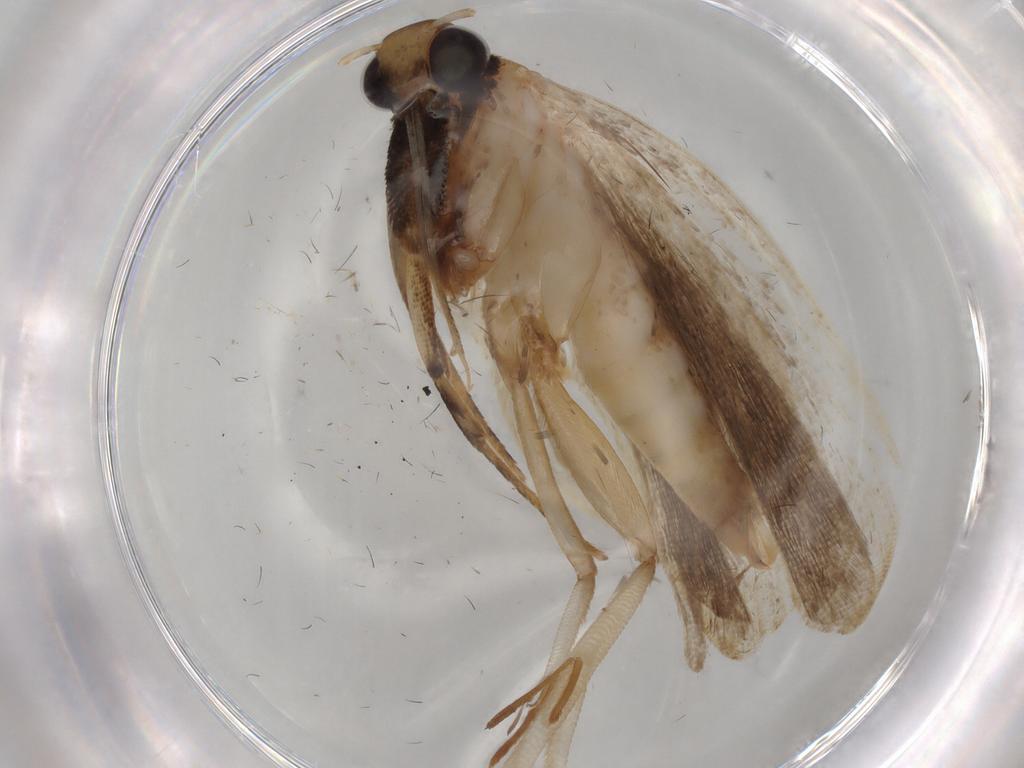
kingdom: Animalia
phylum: Arthropoda
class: Insecta
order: Lepidoptera
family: Gelechiidae
